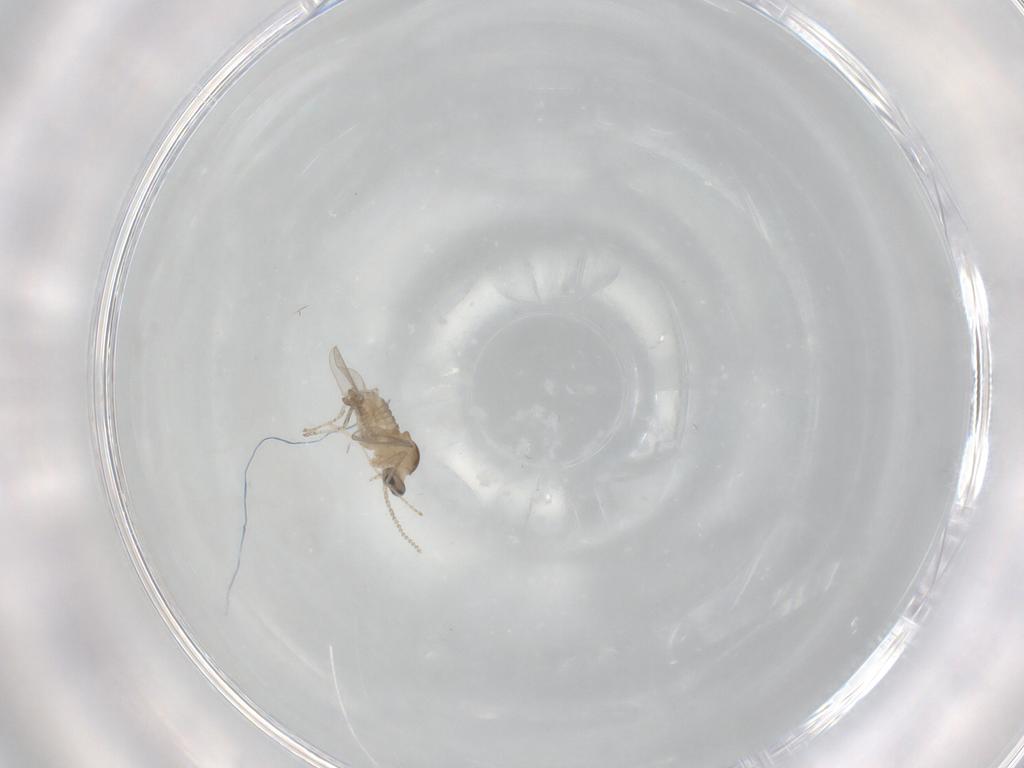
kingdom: Animalia
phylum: Arthropoda
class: Insecta
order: Diptera
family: Cecidomyiidae
